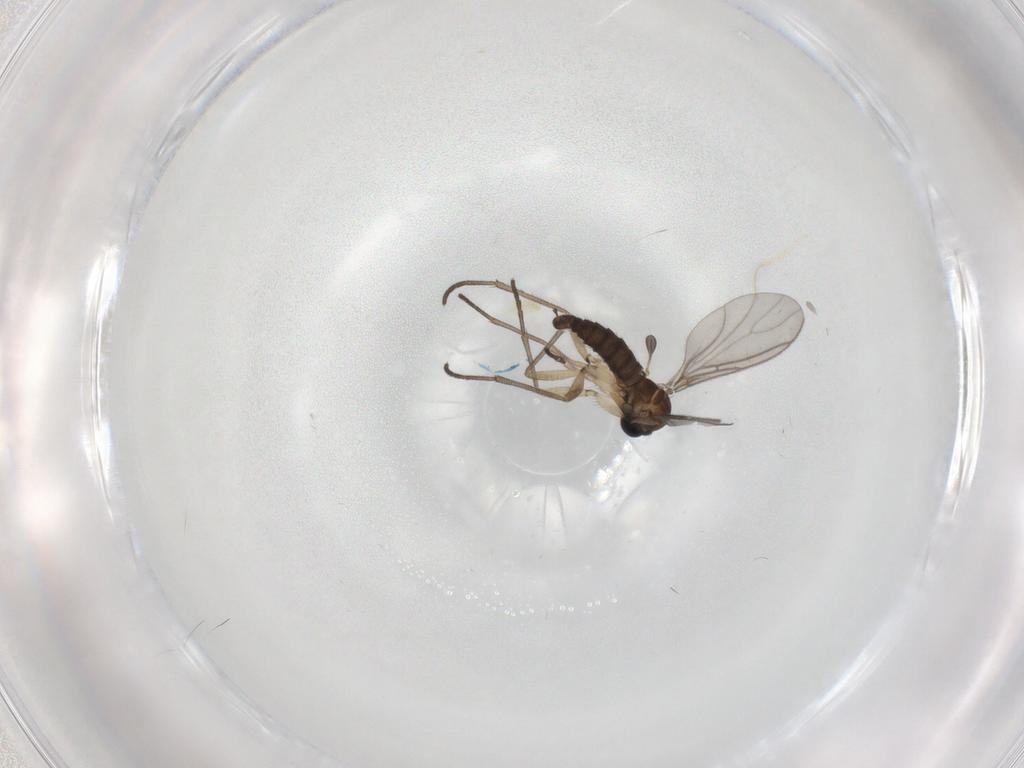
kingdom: Animalia
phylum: Arthropoda
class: Insecta
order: Diptera
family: Sciaridae
